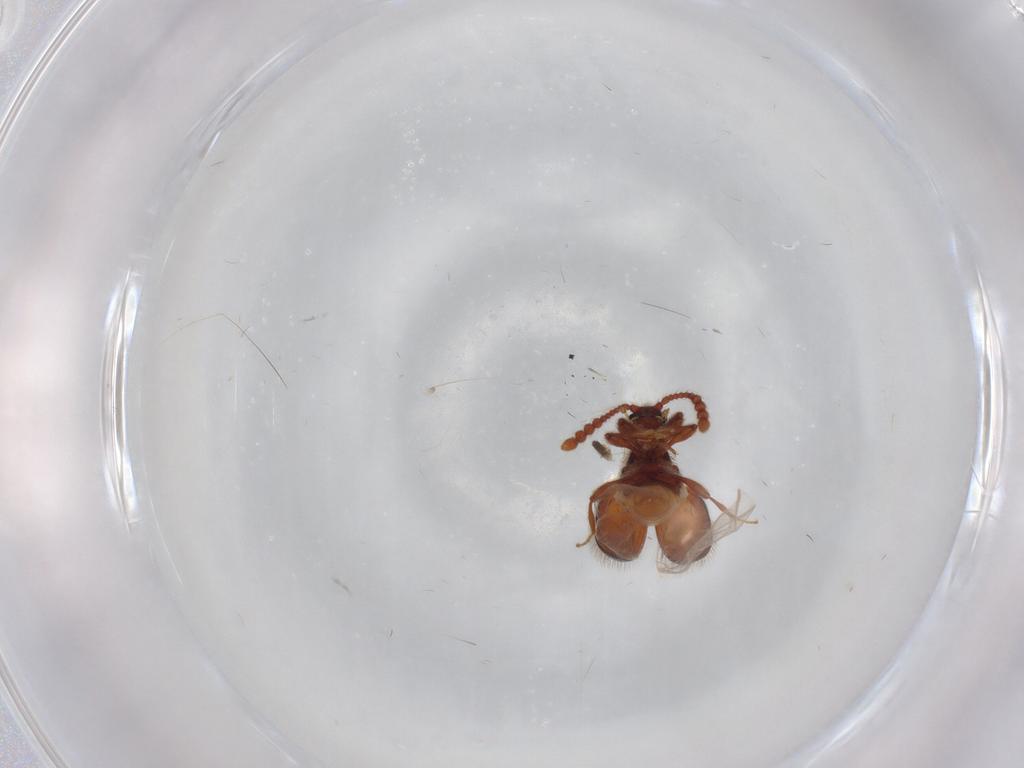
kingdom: Animalia
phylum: Arthropoda
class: Insecta
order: Coleoptera
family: Staphylinidae
